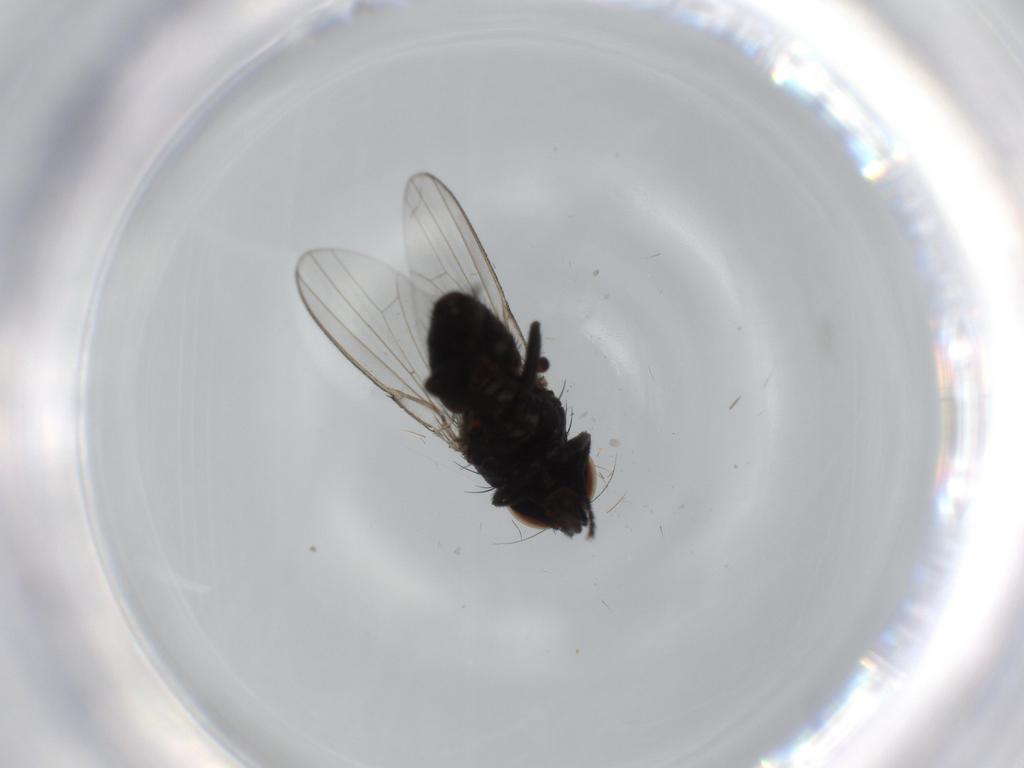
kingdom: Animalia
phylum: Arthropoda
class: Insecta
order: Diptera
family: Milichiidae
